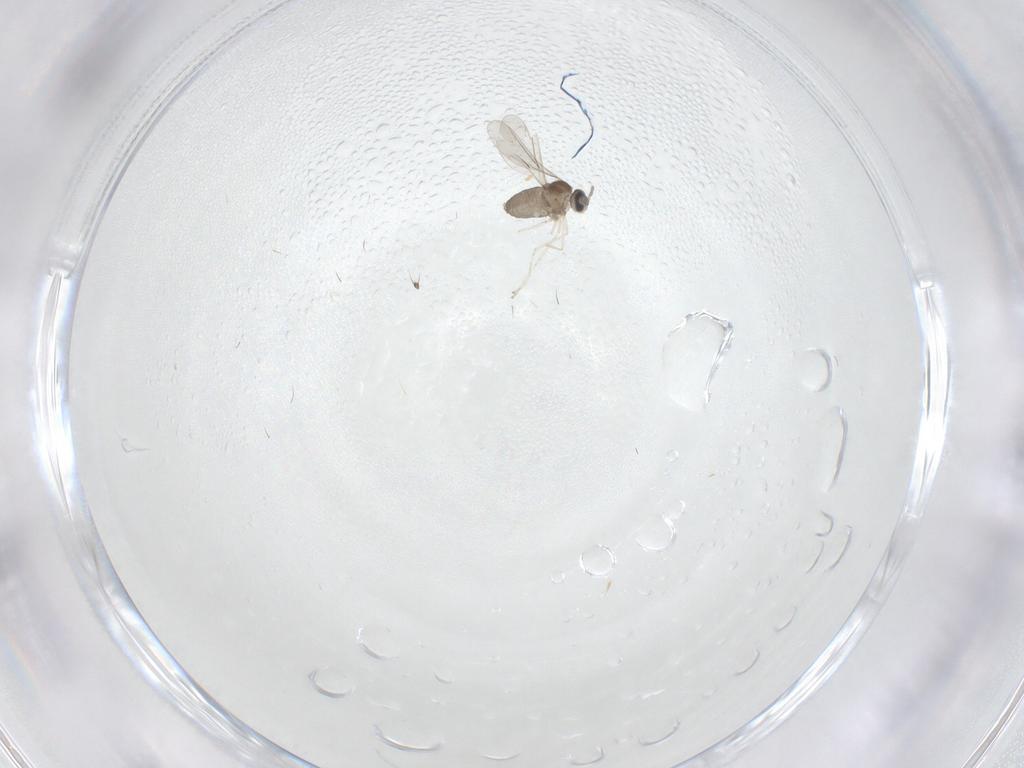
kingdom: Animalia
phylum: Arthropoda
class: Insecta
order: Diptera
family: Cecidomyiidae
